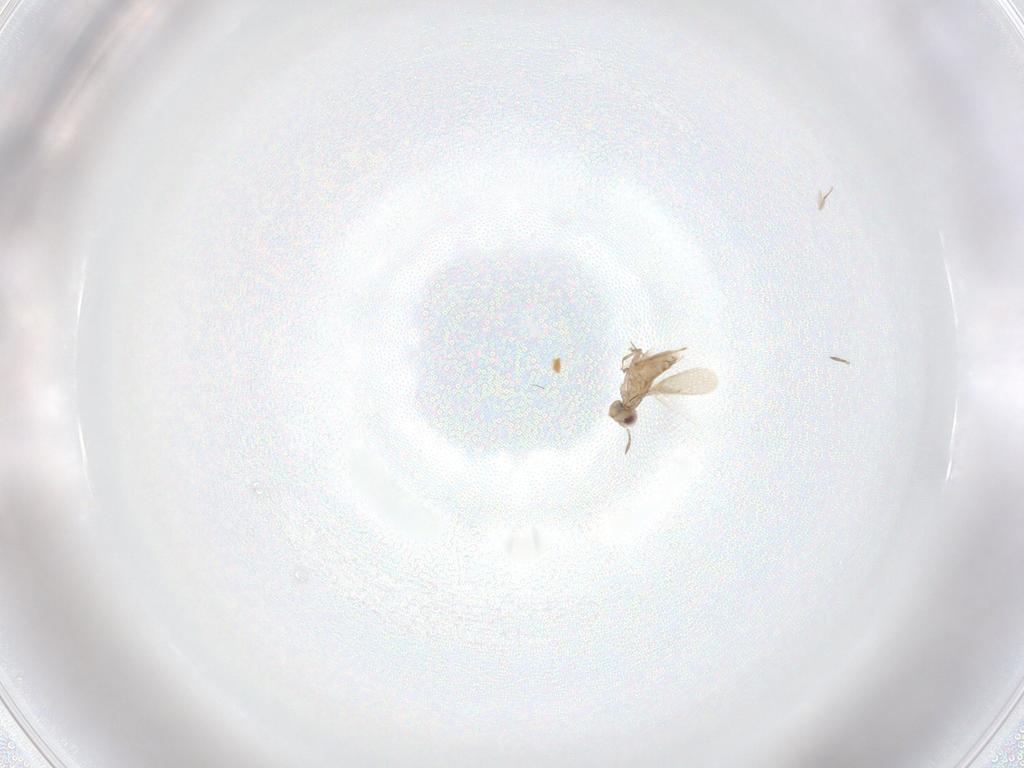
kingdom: Animalia
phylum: Arthropoda
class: Insecta
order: Hymenoptera
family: Aphelinidae
